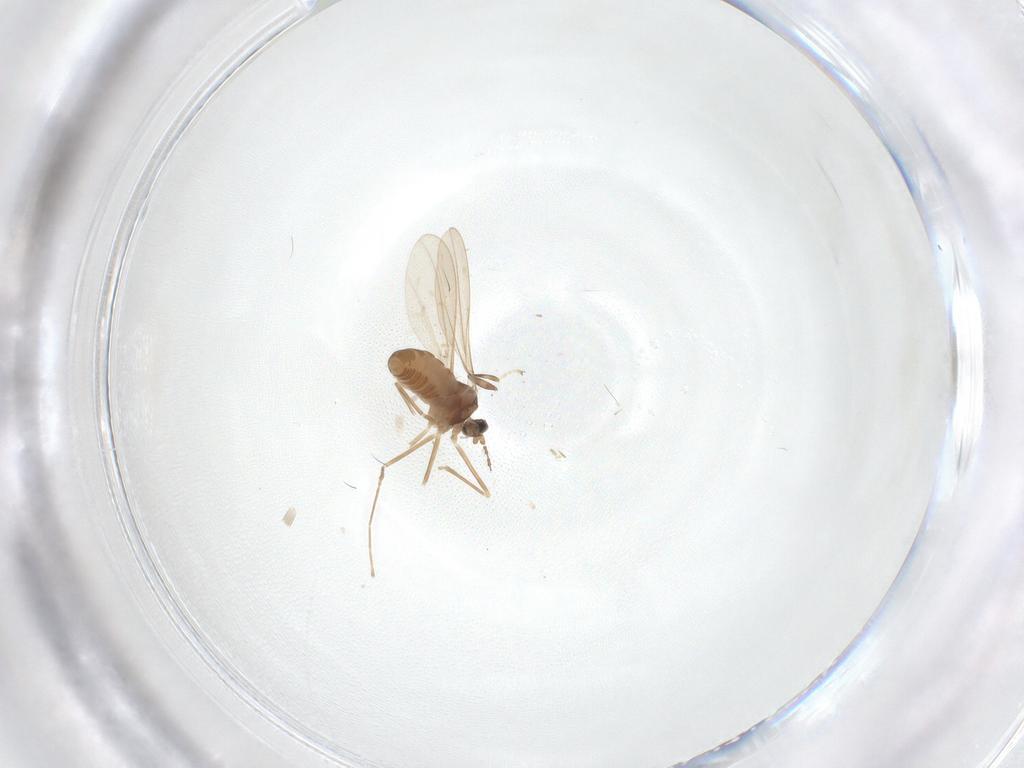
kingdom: Animalia
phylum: Arthropoda
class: Insecta
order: Diptera
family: Cecidomyiidae
